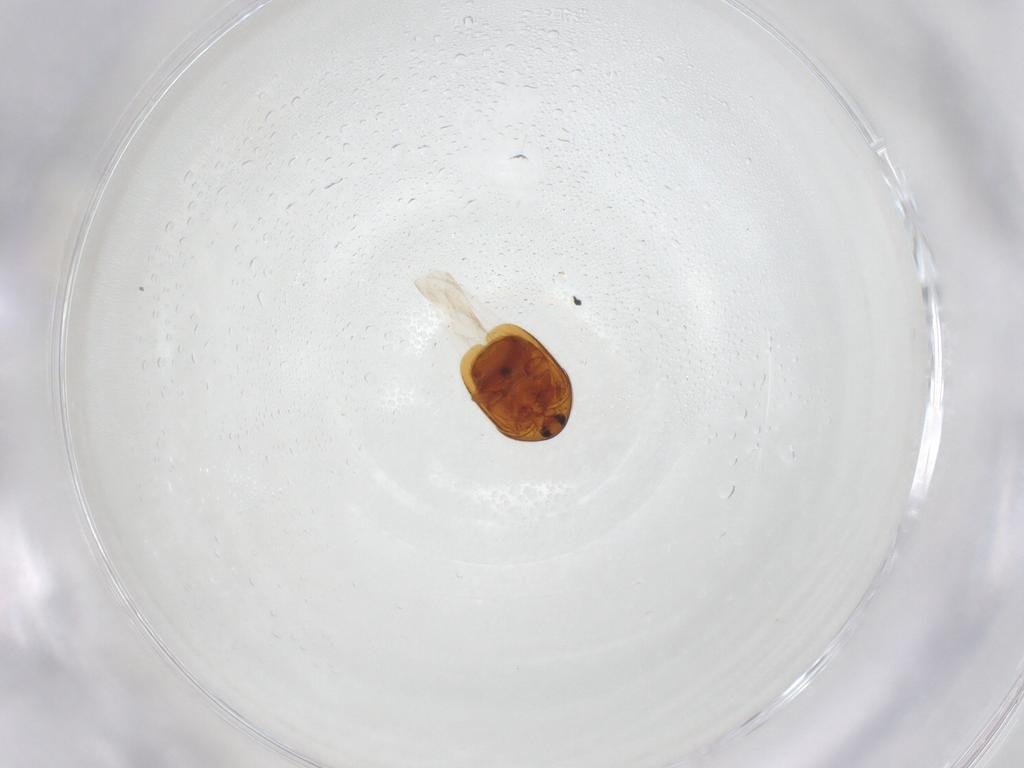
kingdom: Animalia
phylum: Arthropoda
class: Insecta
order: Coleoptera
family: Corylophidae
